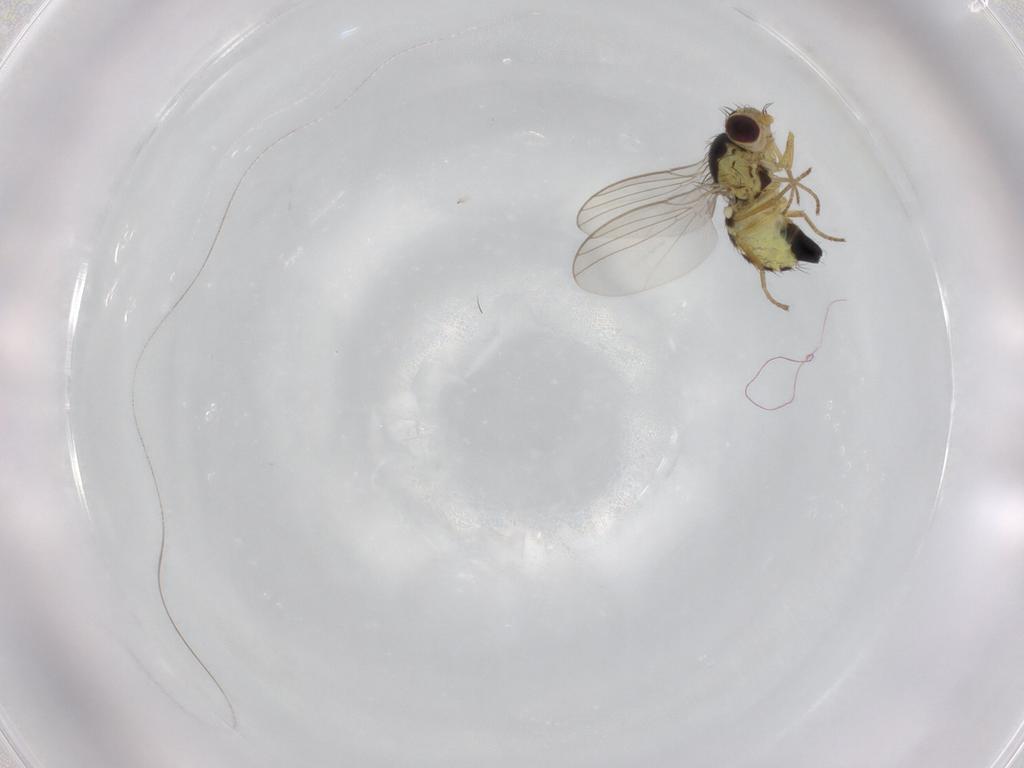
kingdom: Animalia
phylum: Arthropoda
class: Insecta
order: Diptera
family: Agromyzidae
